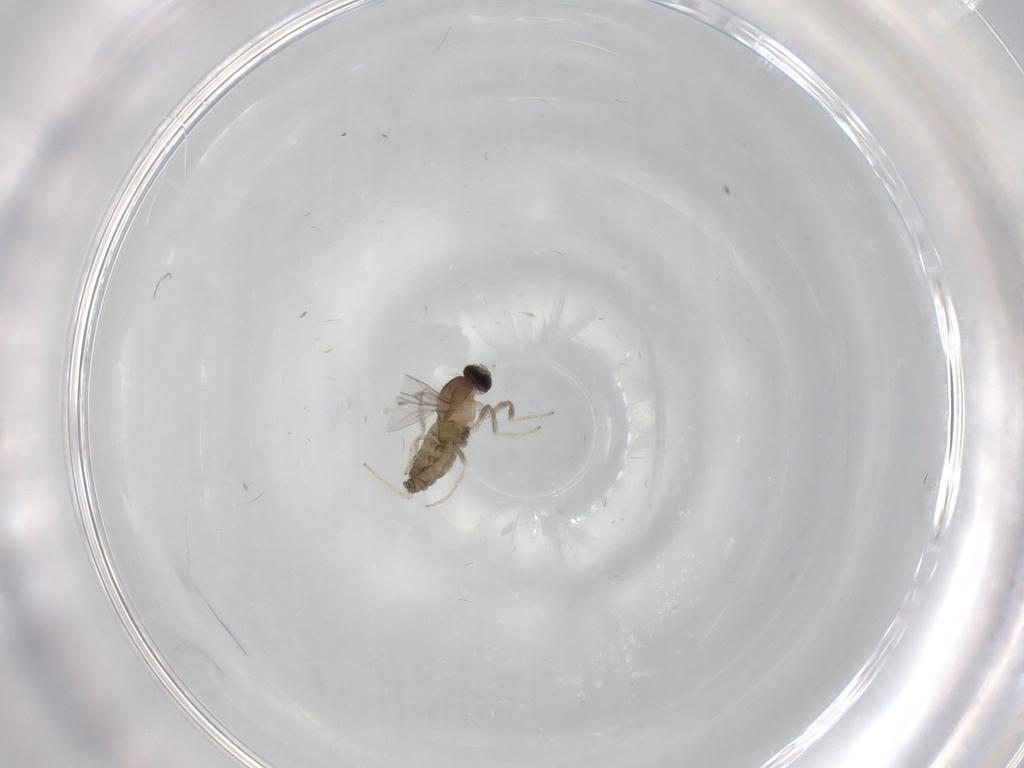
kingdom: Animalia
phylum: Arthropoda
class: Insecta
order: Diptera
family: Cecidomyiidae
